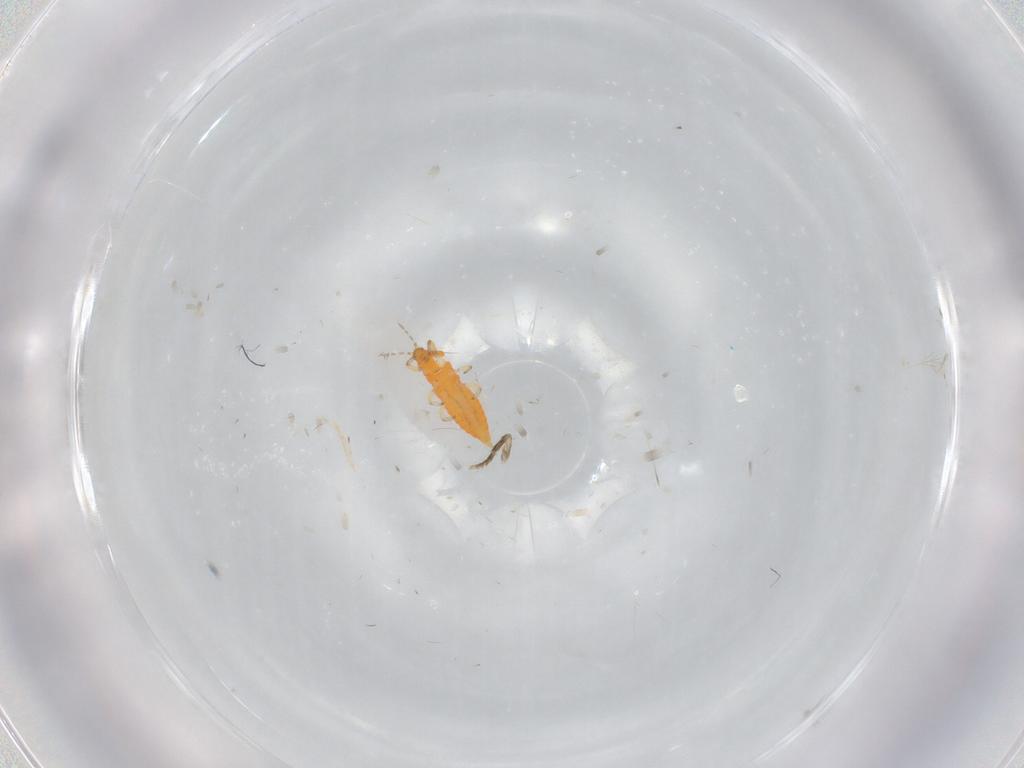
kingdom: Animalia
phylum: Arthropoda
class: Insecta
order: Thysanoptera
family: Aeolothripidae
